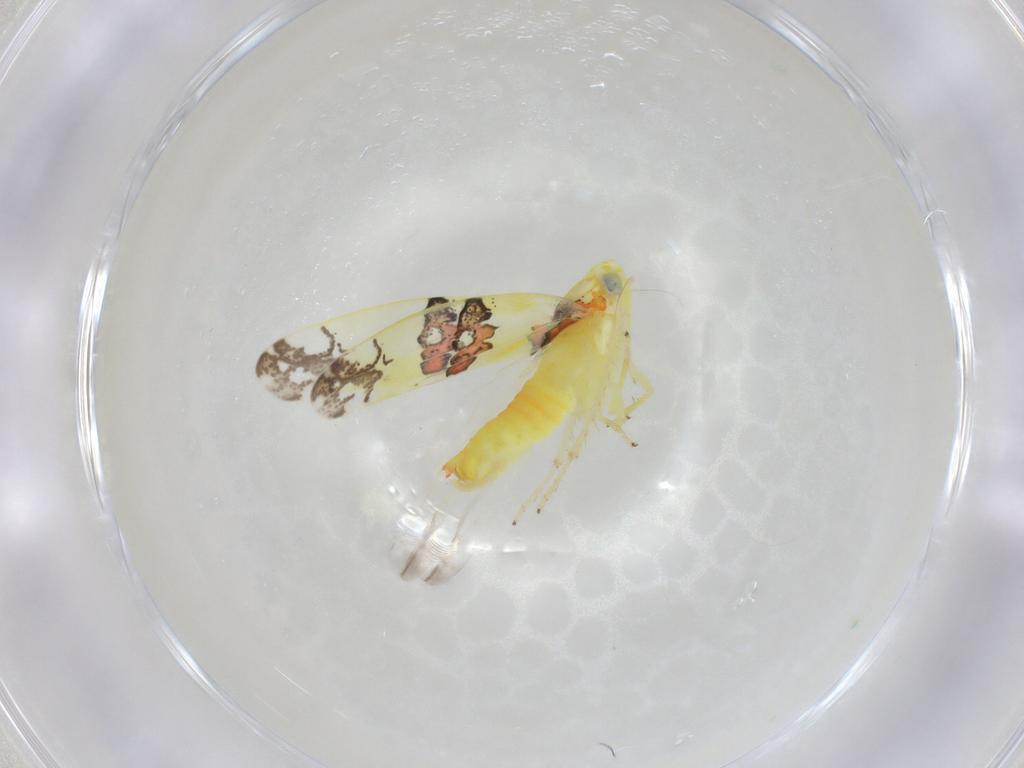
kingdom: Animalia
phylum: Arthropoda
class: Insecta
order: Hemiptera
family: Cicadellidae
